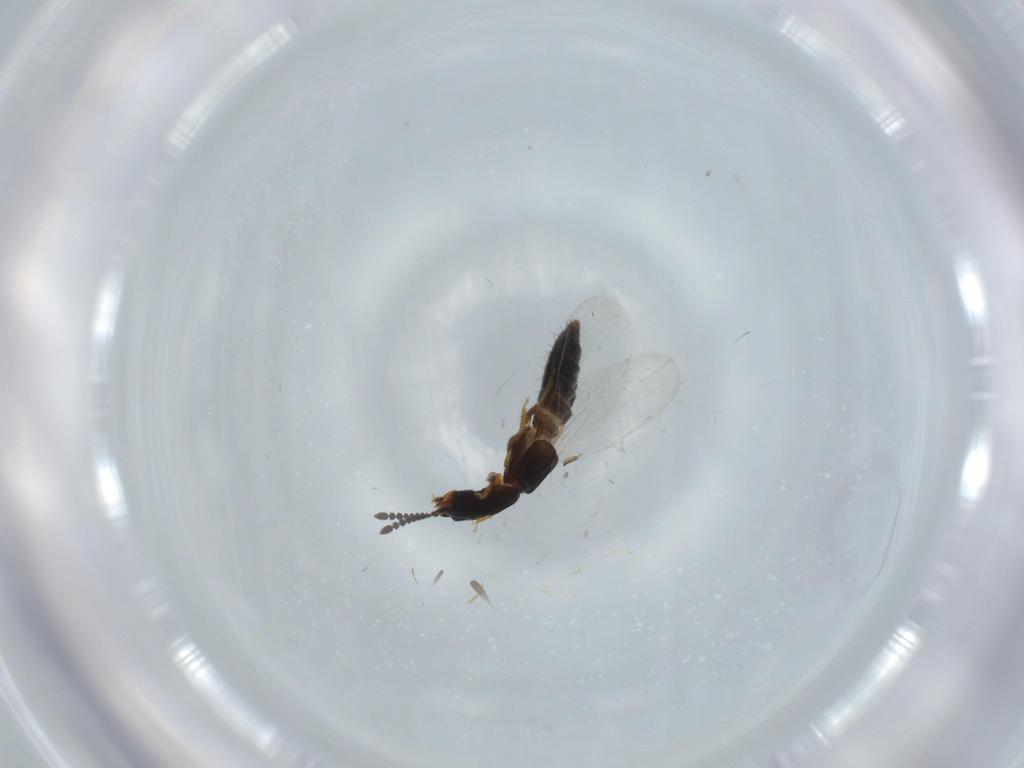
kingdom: Animalia
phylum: Arthropoda
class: Insecta
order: Coleoptera
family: Staphylinidae
